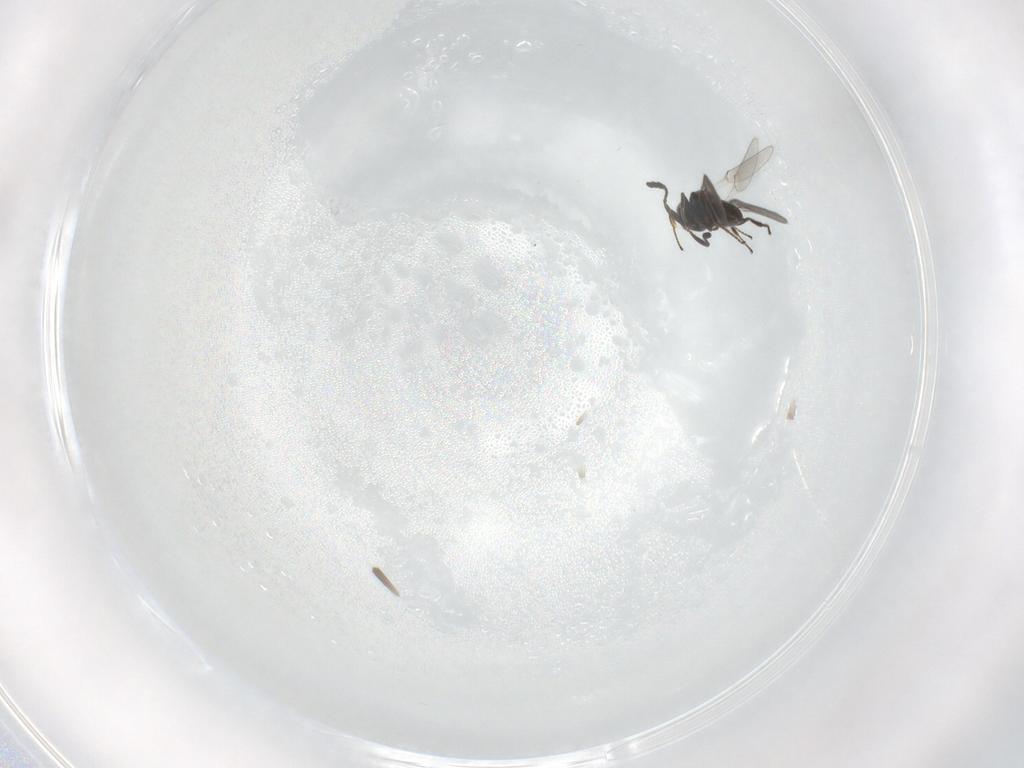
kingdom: Animalia
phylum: Arthropoda
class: Insecta
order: Hymenoptera
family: Platygastridae
